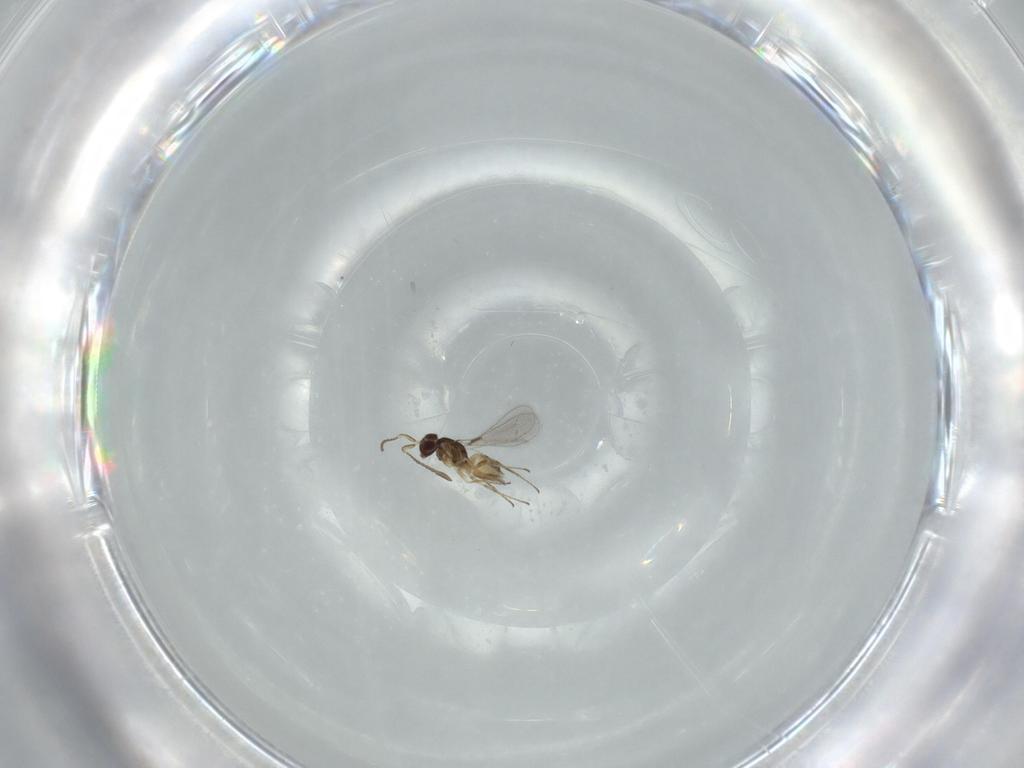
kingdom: Animalia
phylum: Arthropoda
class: Insecta
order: Hymenoptera
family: Mymaridae
